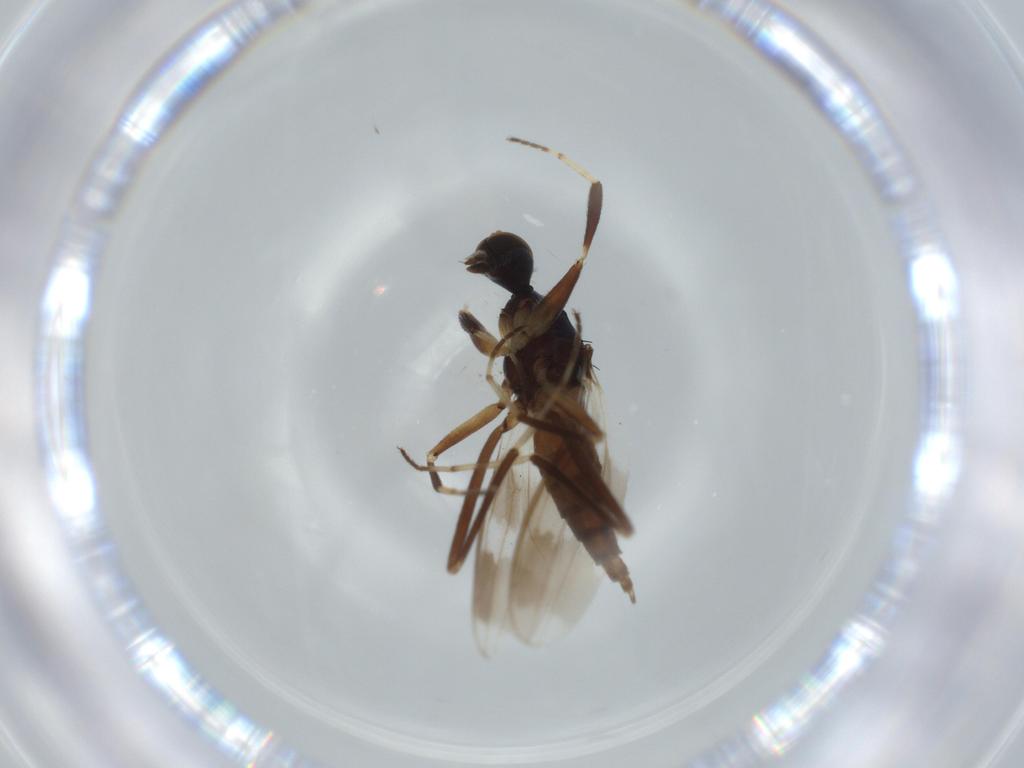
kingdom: Animalia
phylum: Arthropoda
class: Insecta
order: Diptera
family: Hybotidae
